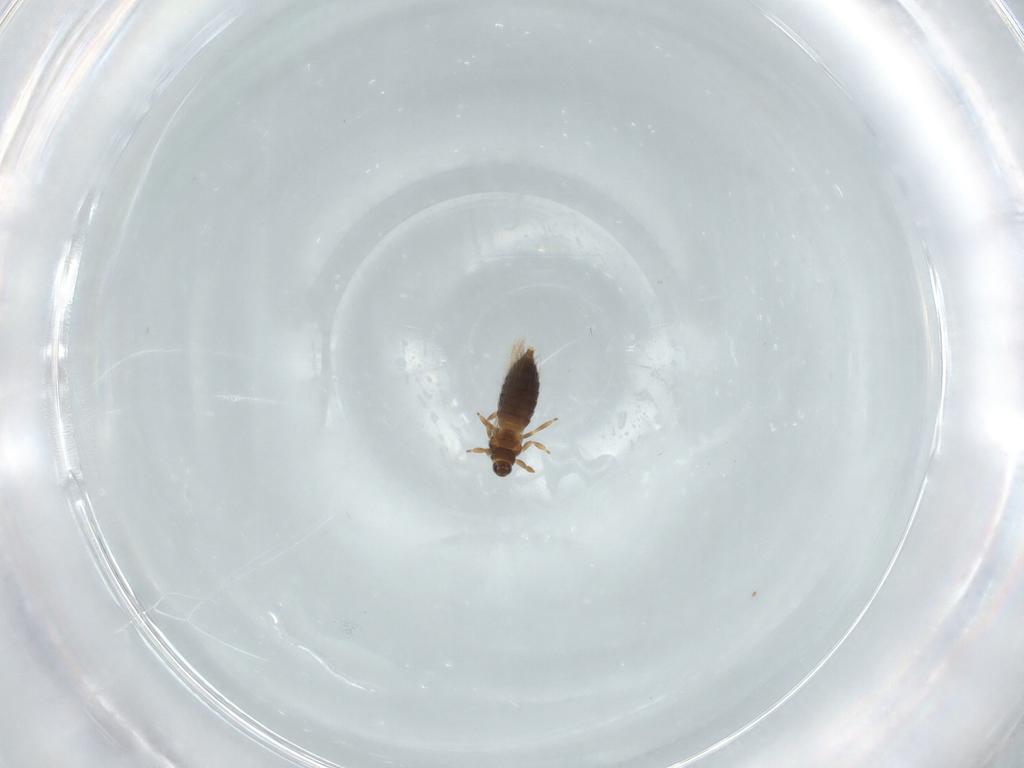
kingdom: Animalia
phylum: Arthropoda
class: Insecta
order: Thysanoptera
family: Thripidae
